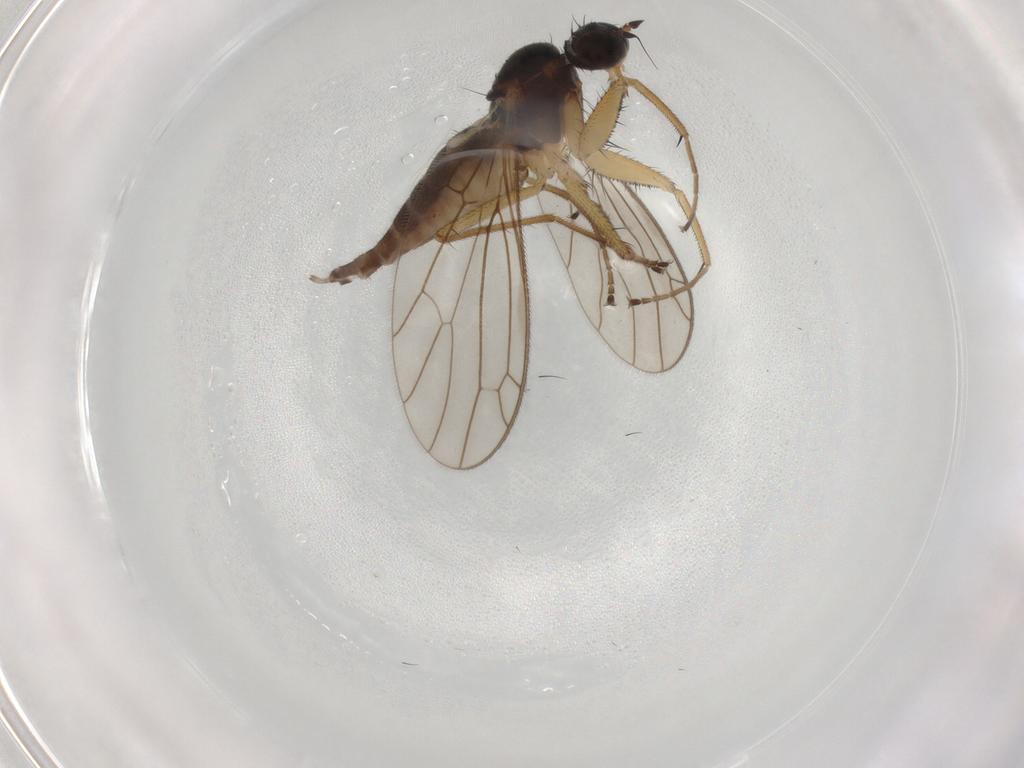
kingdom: Animalia
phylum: Arthropoda
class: Insecta
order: Diptera
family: Empididae
